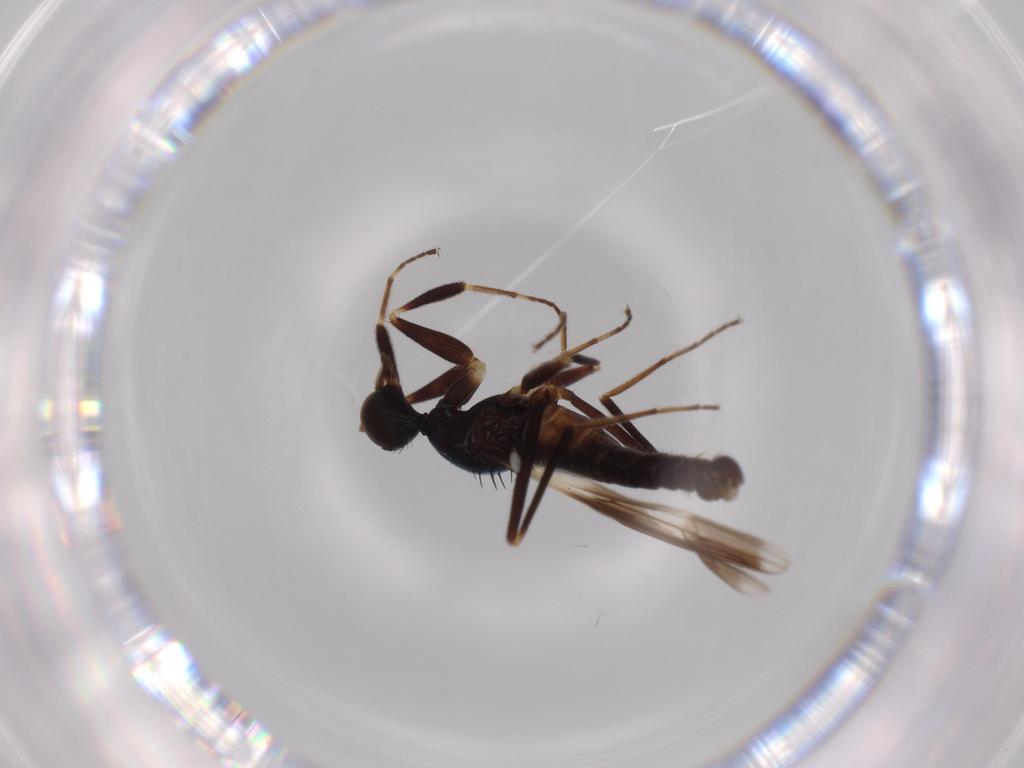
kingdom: Animalia
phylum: Arthropoda
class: Insecta
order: Diptera
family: Hybotidae
